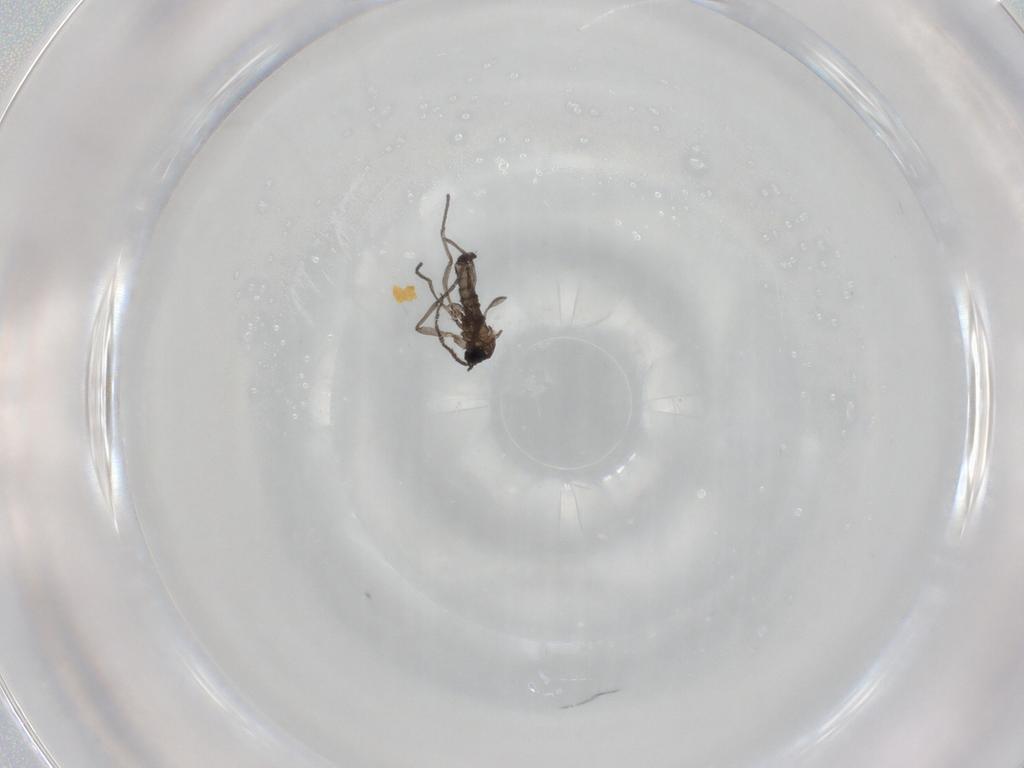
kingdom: Animalia
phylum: Arthropoda
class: Insecta
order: Diptera
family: Sciaridae
